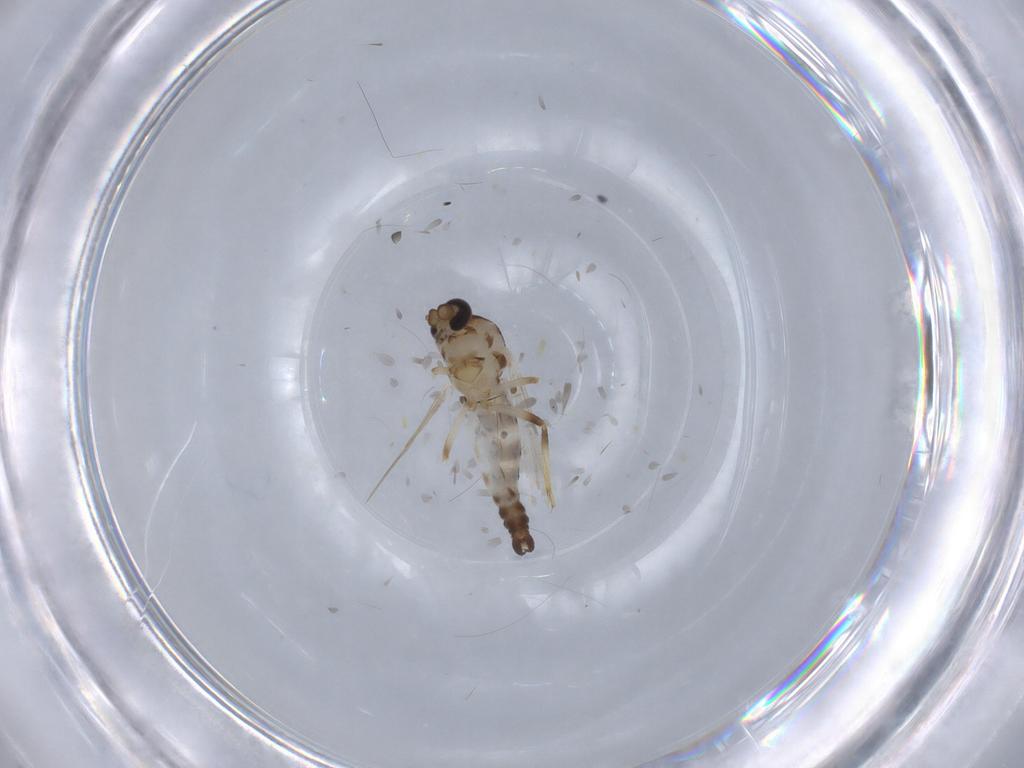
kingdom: Animalia
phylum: Arthropoda
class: Insecta
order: Diptera
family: Ceratopogonidae
